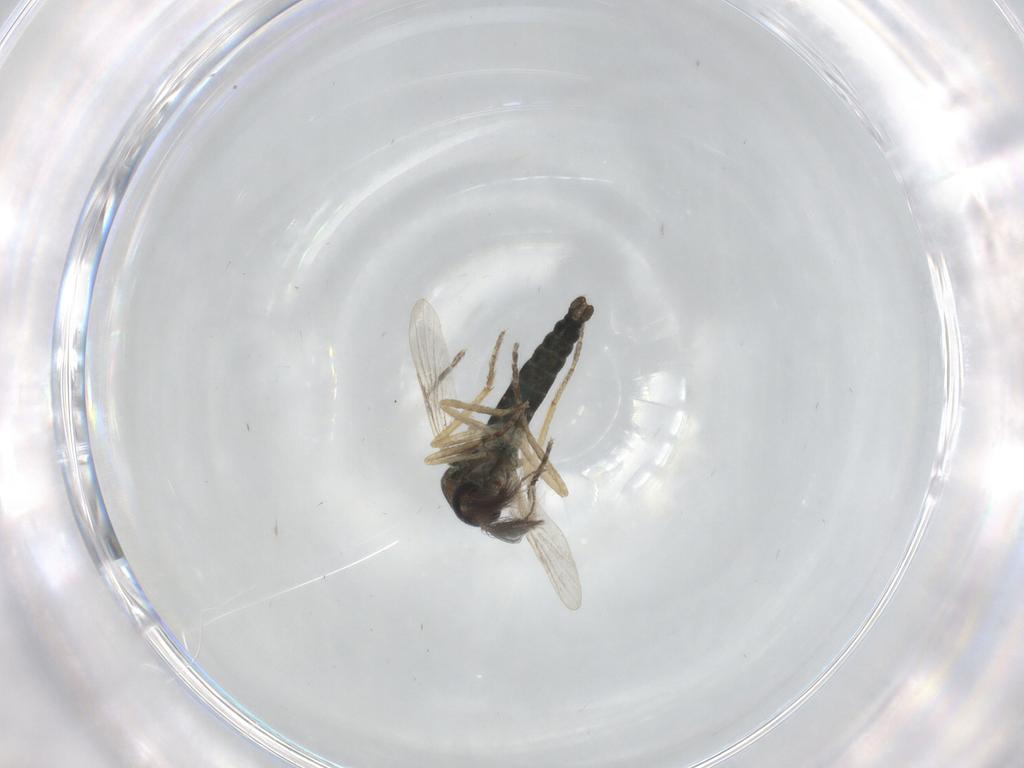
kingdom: Animalia
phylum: Arthropoda
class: Insecta
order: Diptera
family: Ceratopogonidae
